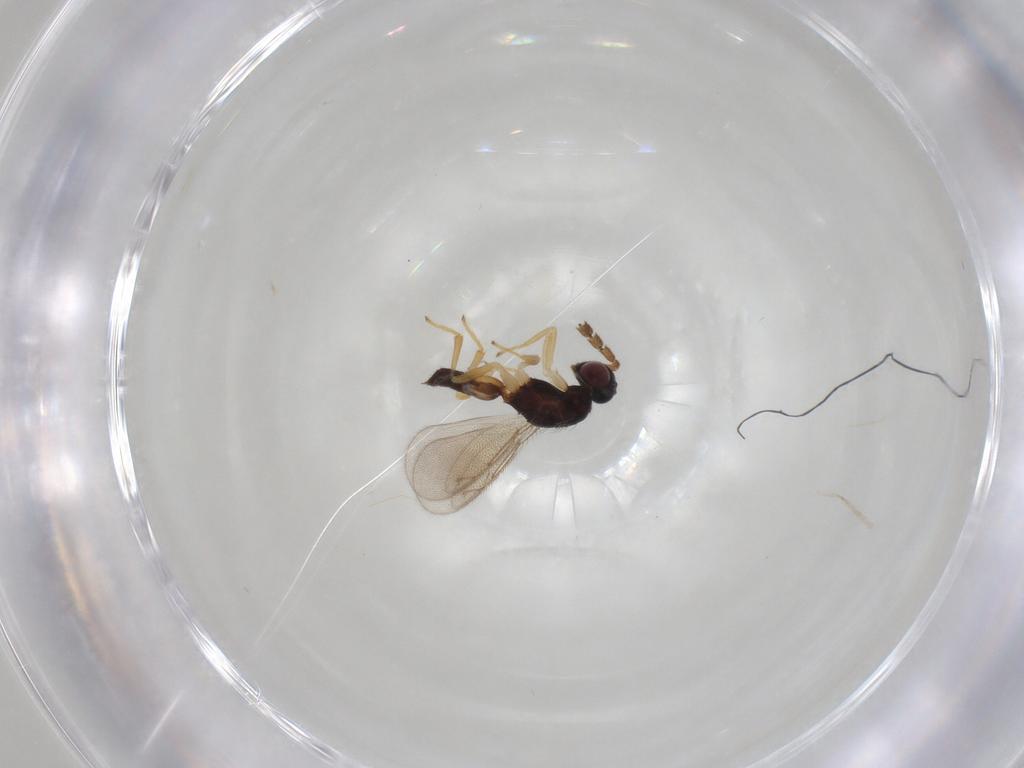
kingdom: Animalia
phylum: Arthropoda
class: Insecta
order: Hymenoptera
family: Eulophidae
